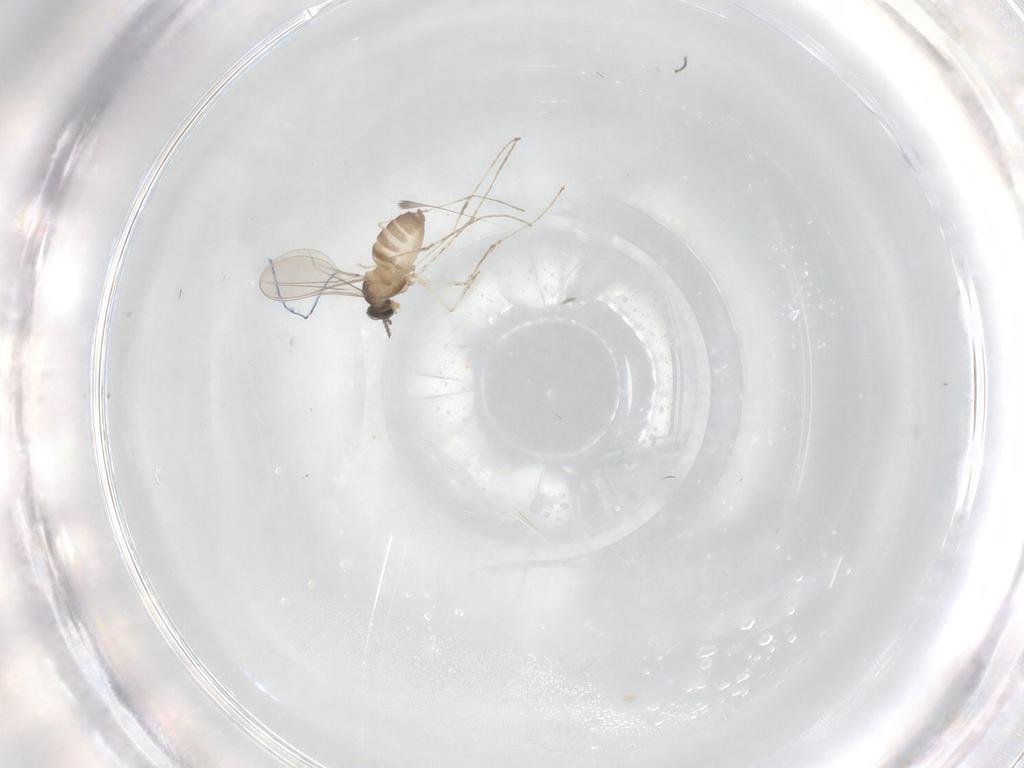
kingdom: Animalia
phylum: Arthropoda
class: Insecta
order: Diptera
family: Cecidomyiidae
